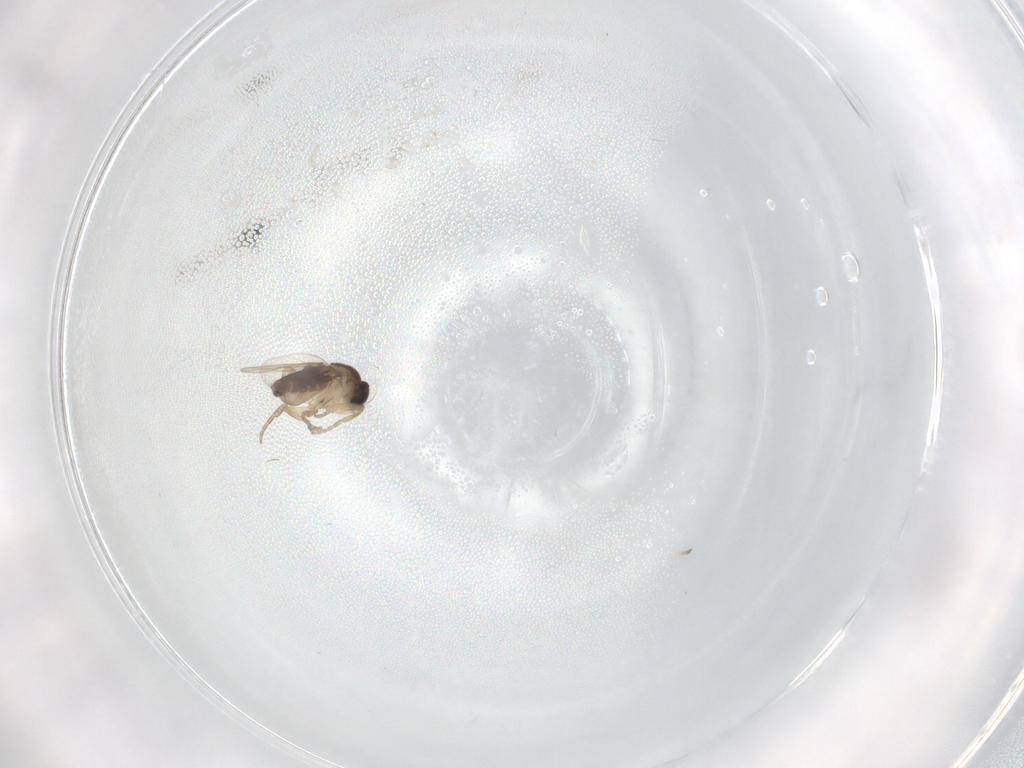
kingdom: Animalia
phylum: Arthropoda
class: Insecta
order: Diptera
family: Phoridae
